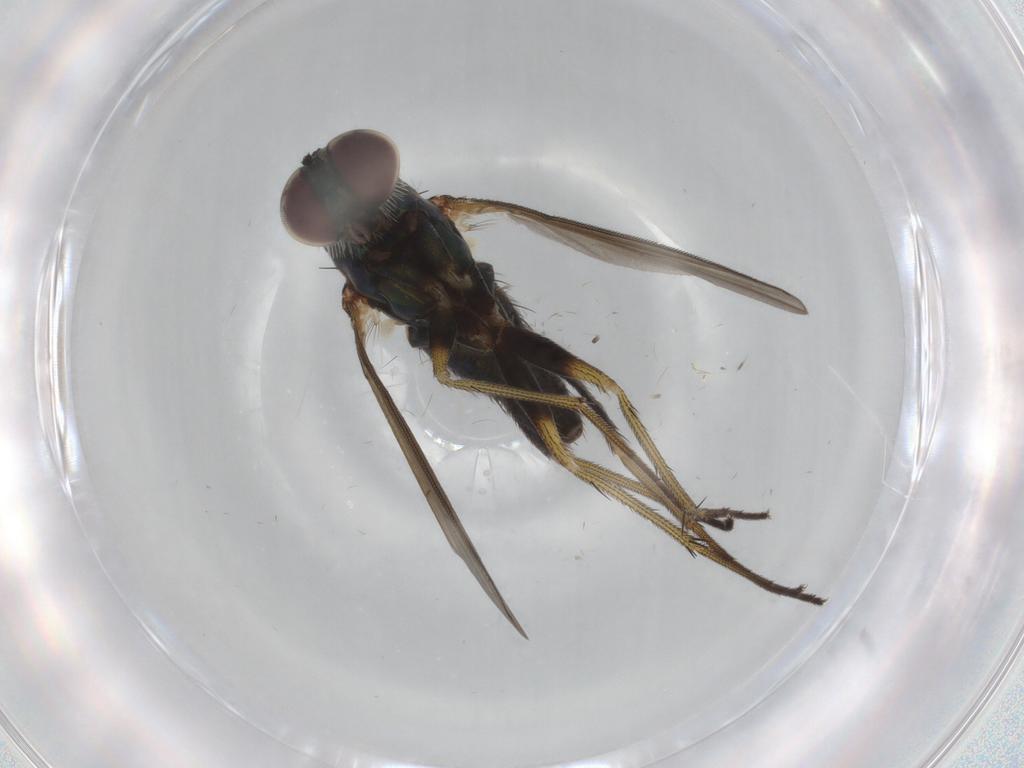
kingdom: Animalia
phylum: Arthropoda
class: Insecta
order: Diptera
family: Dolichopodidae
